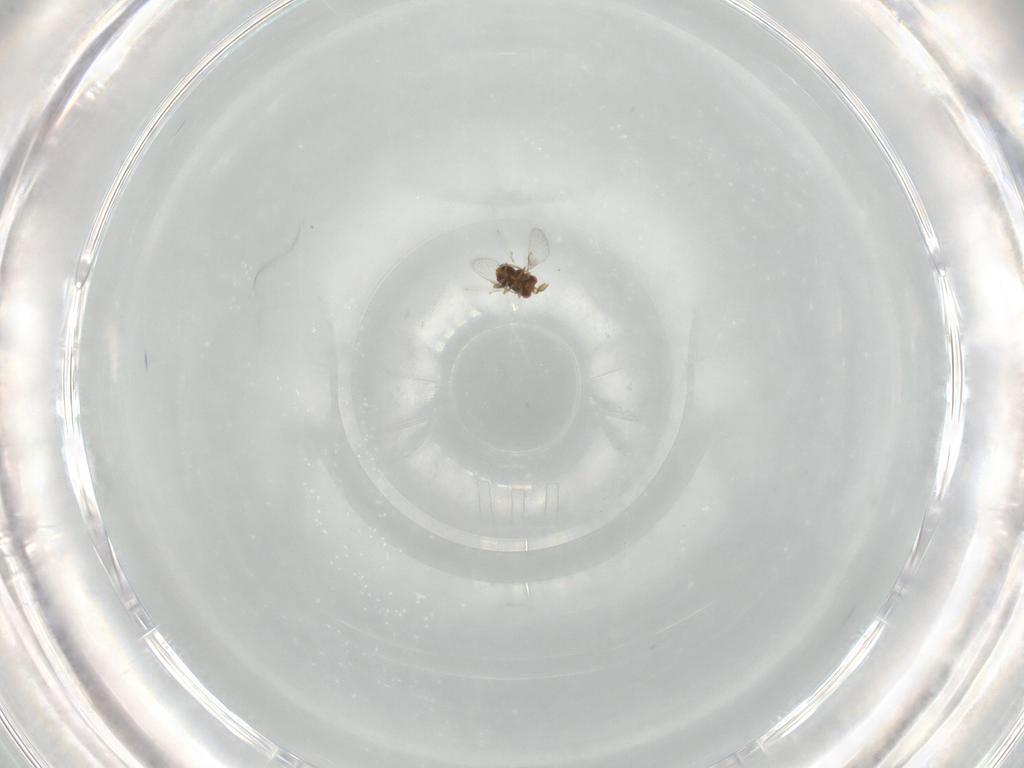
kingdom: Animalia
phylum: Arthropoda
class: Insecta
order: Hymenoptera
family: Trichogrammatidae
